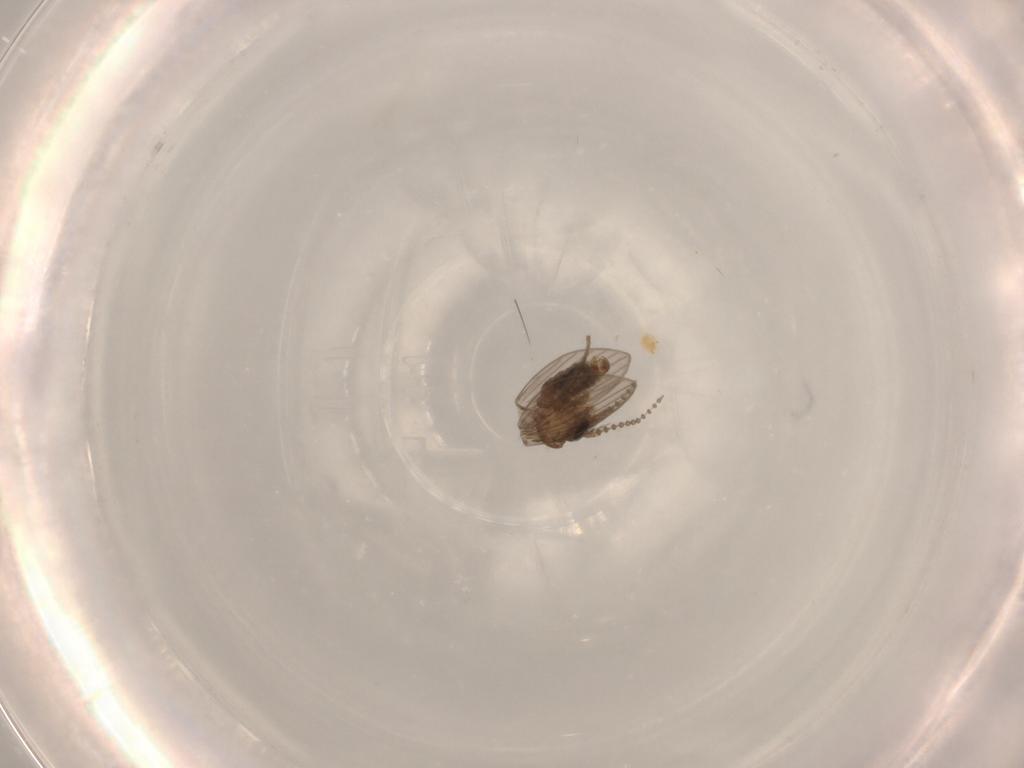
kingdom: Animalia
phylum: Arthropoda
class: Insecta
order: Diptera
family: Psychodidae
